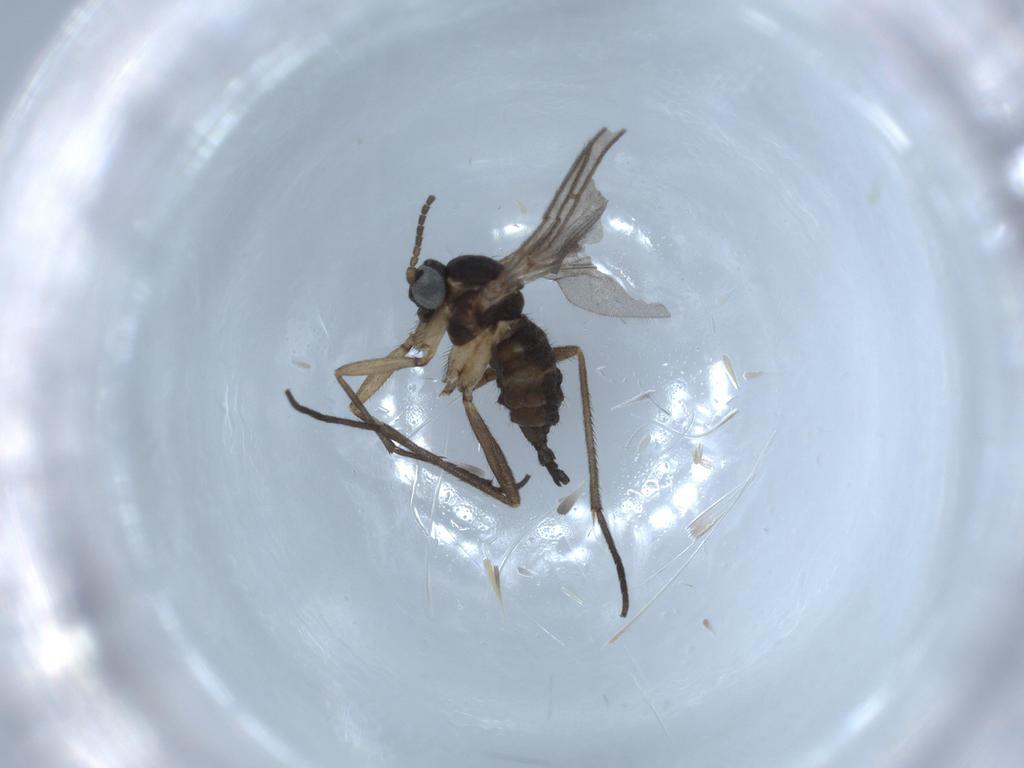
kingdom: Animalia
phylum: Arthropoda
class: Insecta
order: Diptera
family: Sciaridae
